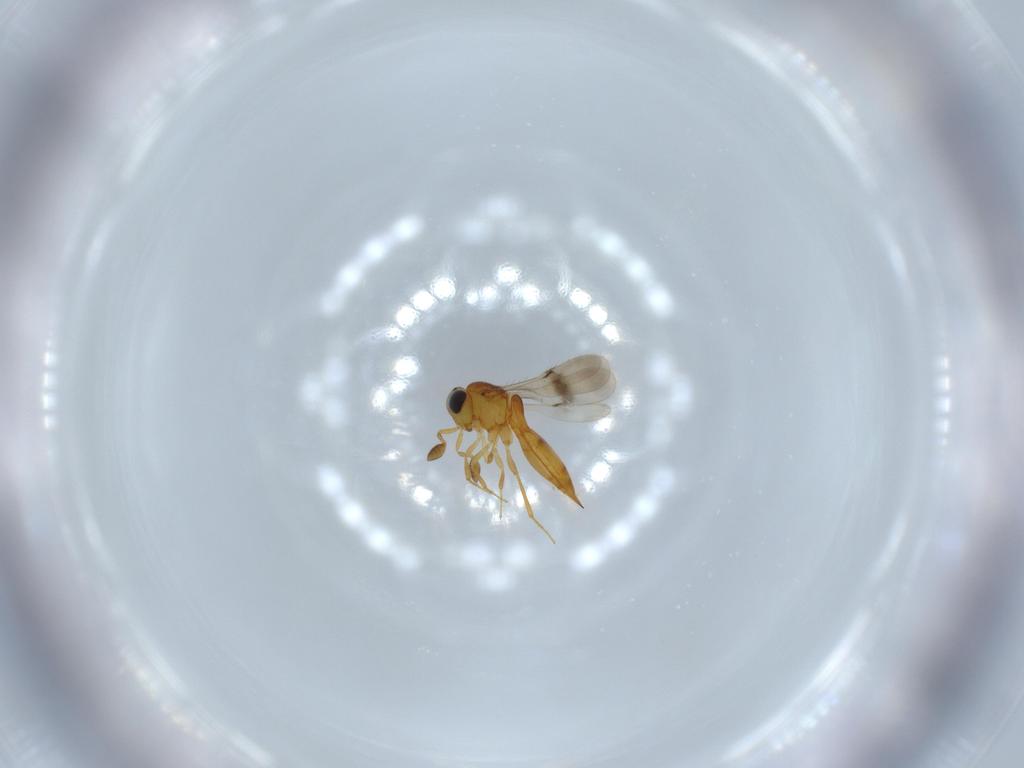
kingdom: Animalia
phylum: Arthropoda
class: Insecta
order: Hymenoptera
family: Scelionidae
